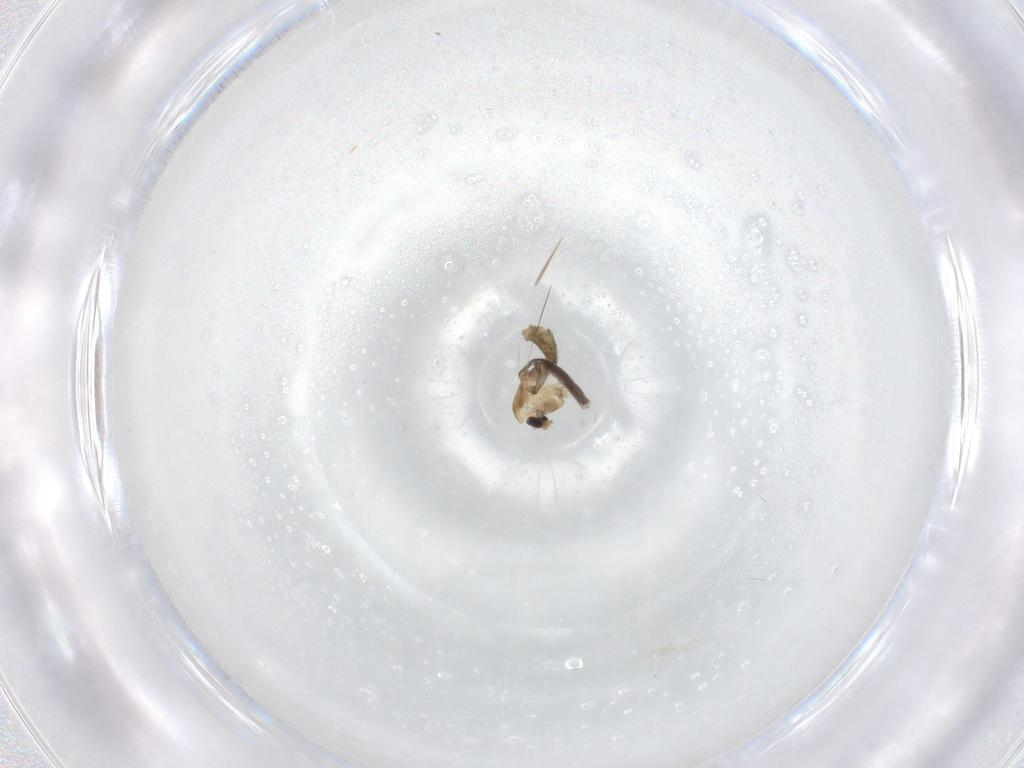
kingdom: Animalia
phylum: Arthropoda
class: Insecta
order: Diptera
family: Chironomidae
